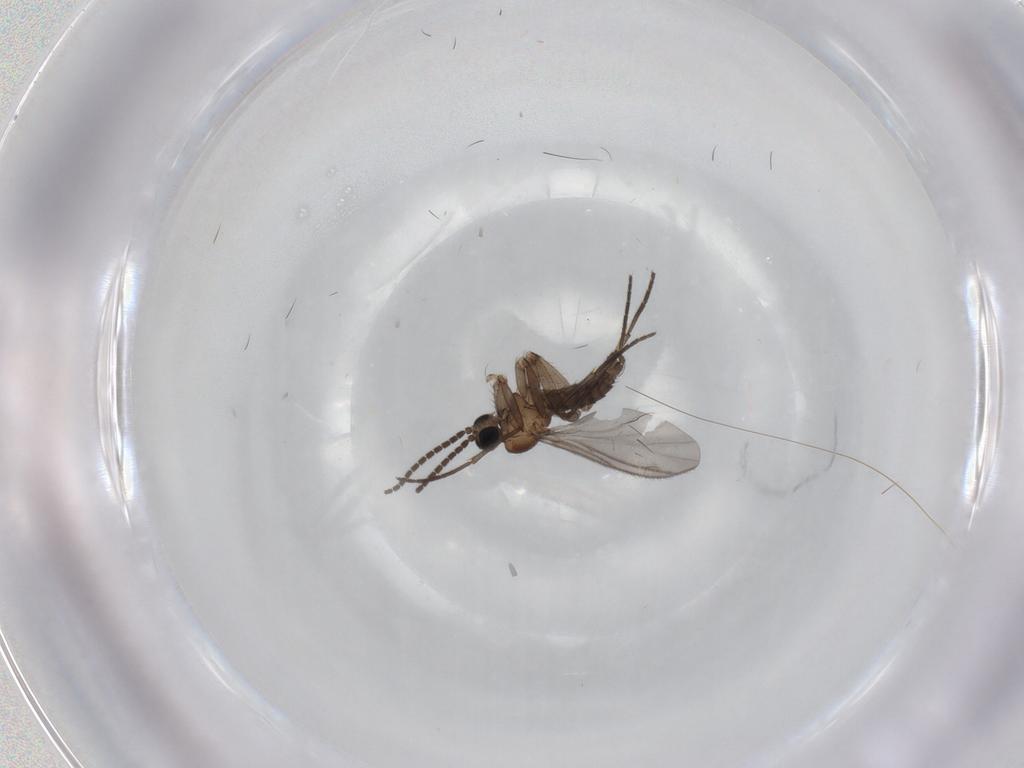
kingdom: Animalia
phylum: Arthropoda
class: Insecta
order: Diptera
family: Sciaridae
